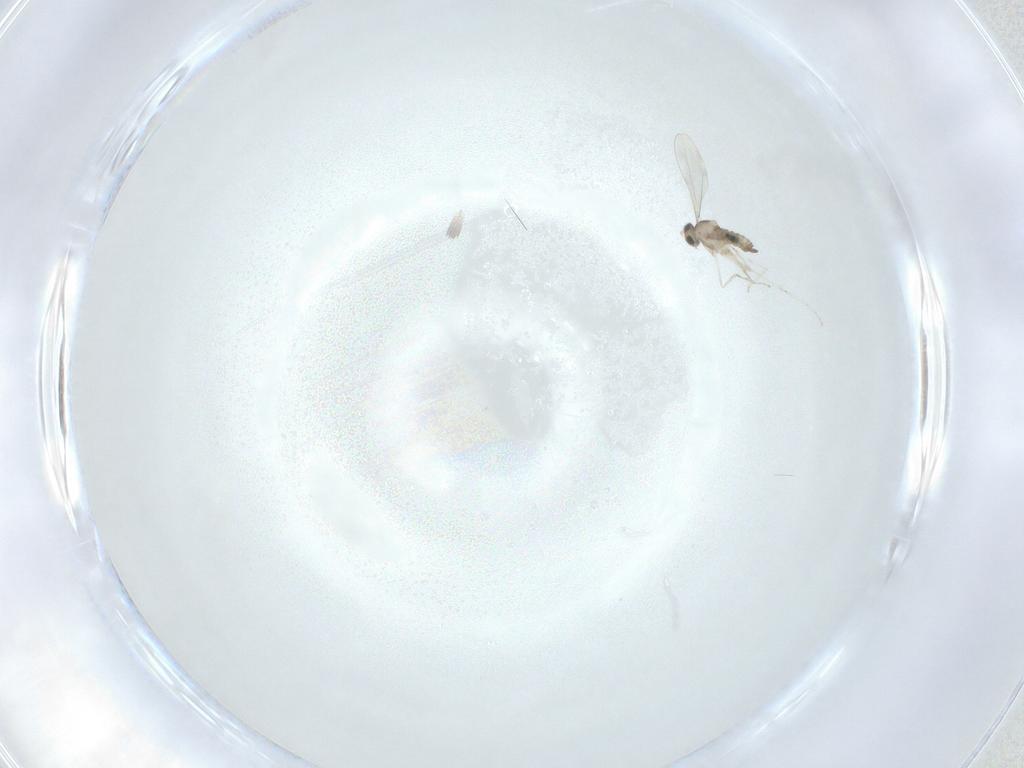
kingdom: Animalia
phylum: Arthropoda
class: Insecta
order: Diptera
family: Cecidomyiidae
